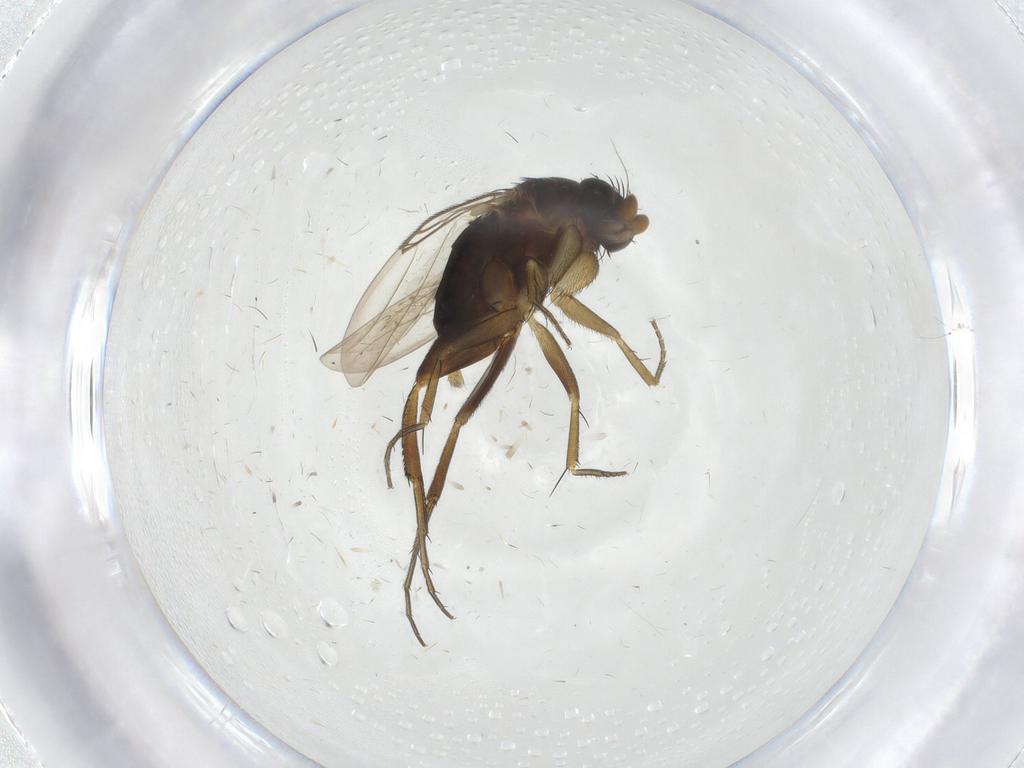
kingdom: Animalia
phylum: Arthropoda
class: Insecta
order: Diptera
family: Phoridae
